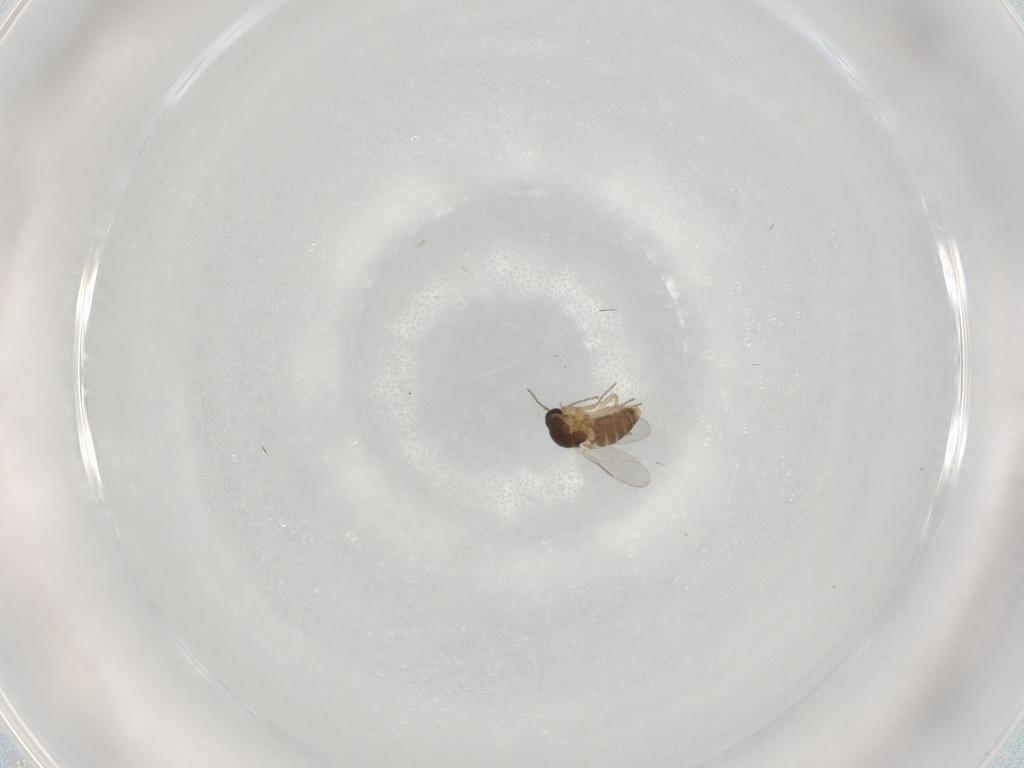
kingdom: Animalia
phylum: Arthropoda
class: Insecta
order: Diptera
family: Ceratopogonidae
